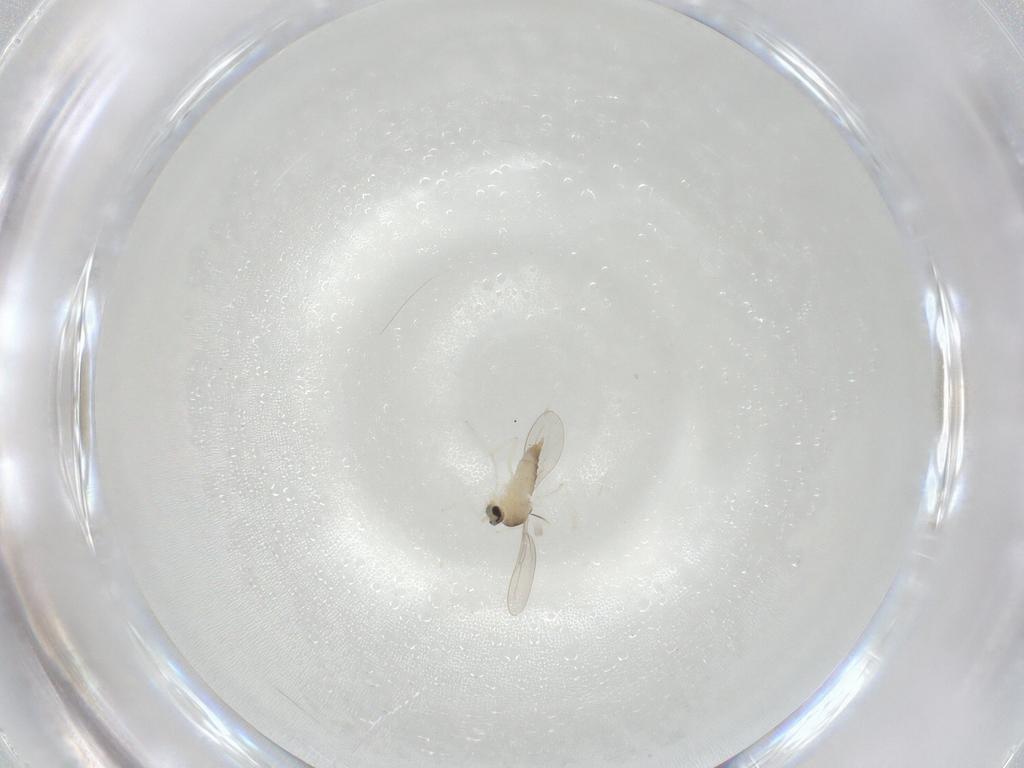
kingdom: Animalia
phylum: Arthropoda
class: Insecta
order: Diptera
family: Cecidomyiidae
